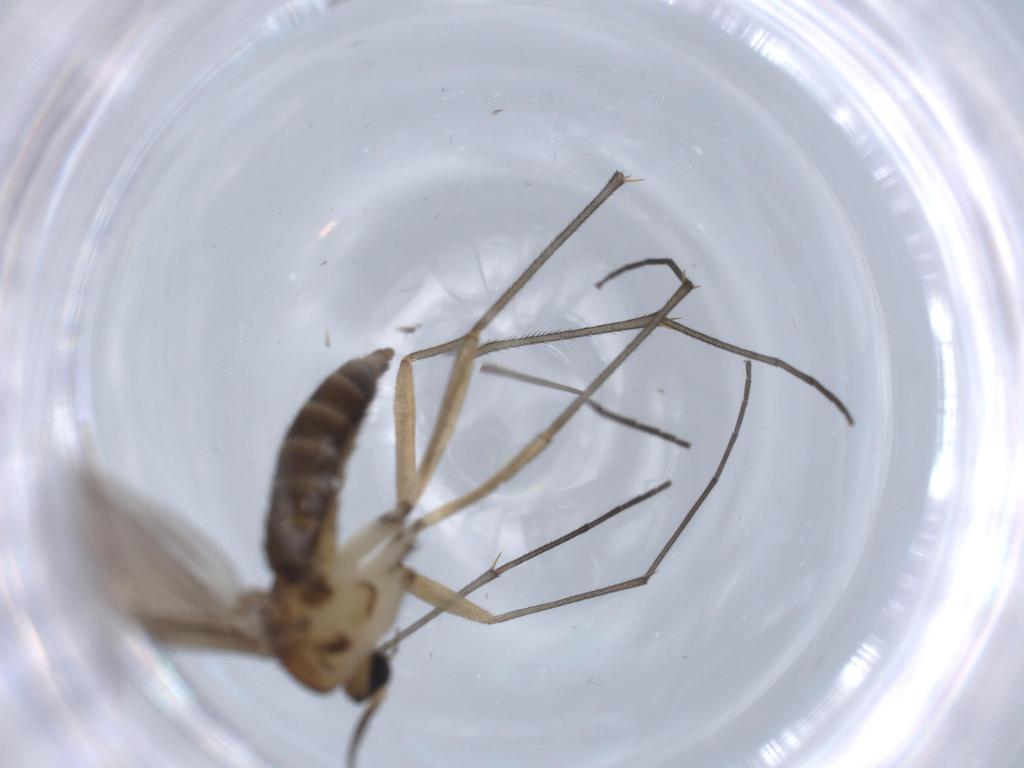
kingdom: Animalia
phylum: Arthropoda
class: Insecta
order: Diptera
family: Sciaridae
